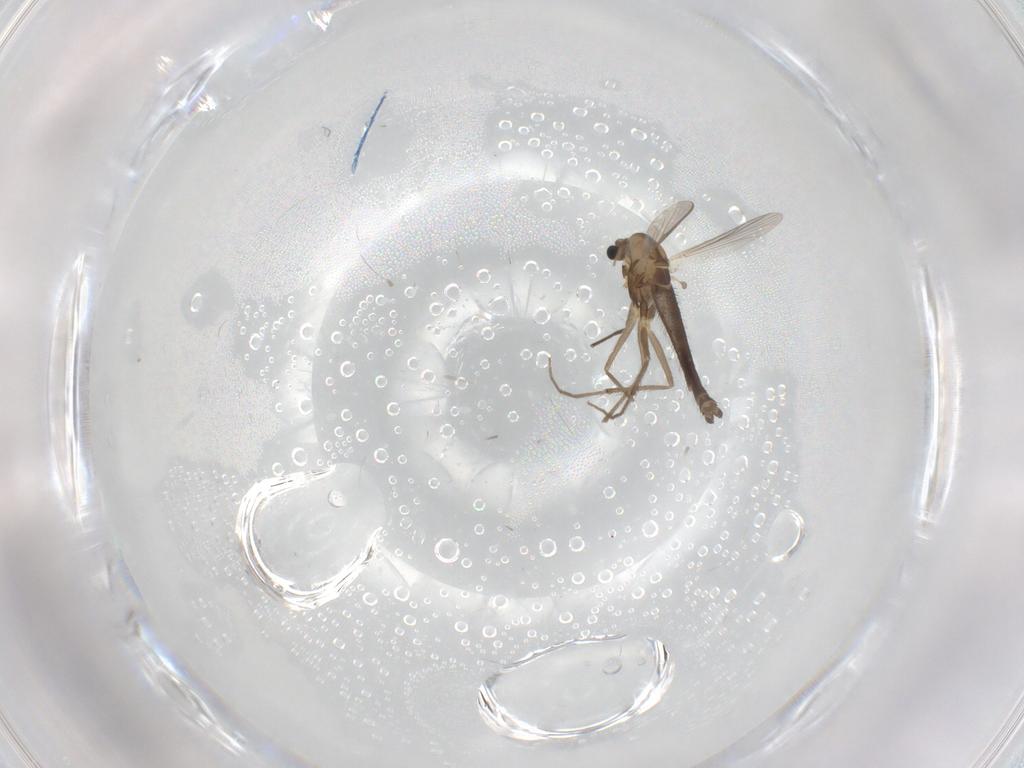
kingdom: Animalia
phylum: Arthropoda
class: Insecta
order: Diptera
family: Chironomidae
